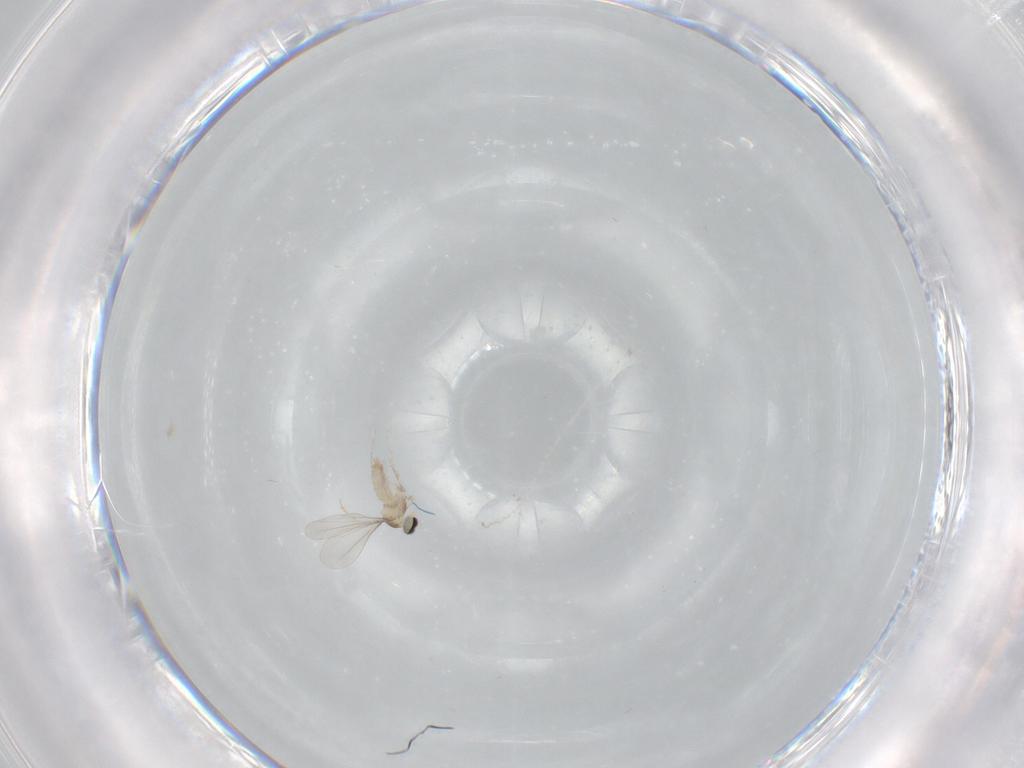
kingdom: Animalia
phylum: Arthropoda
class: Insecta
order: Diptera
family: Cecidomyiidae
